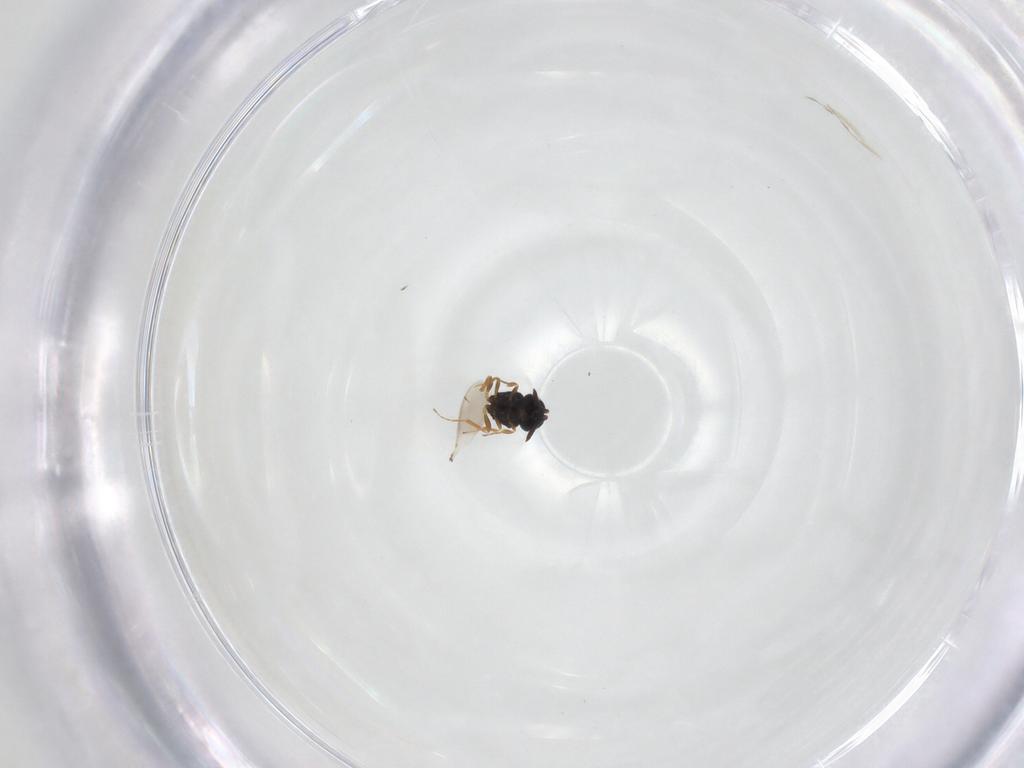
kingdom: Animalia
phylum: Arthropoda
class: Insecta
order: Hymenoptera
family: Scelionidae
